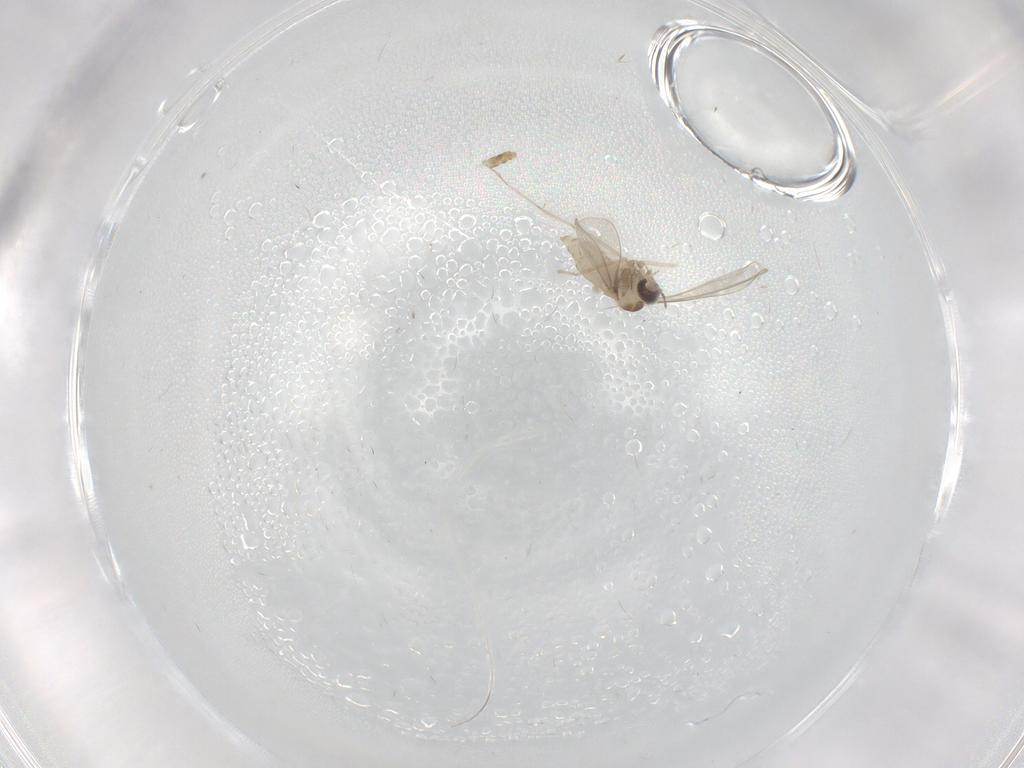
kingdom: Animalia
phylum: Arthropoda
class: Insecta
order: Diptera
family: Chironomidae
